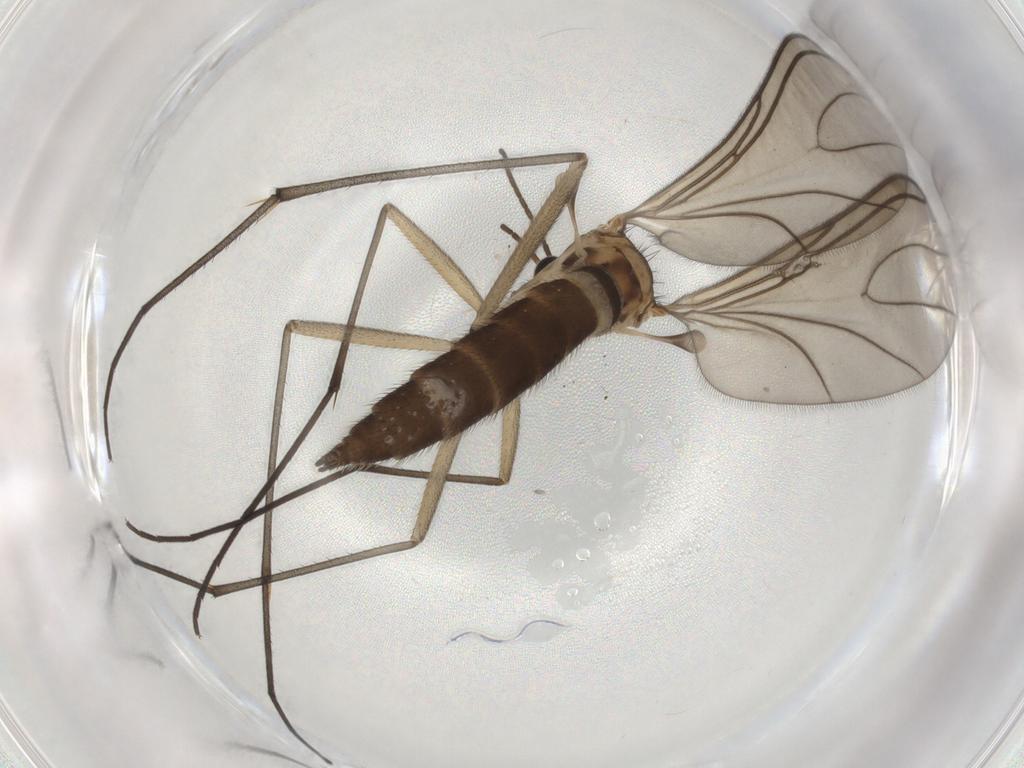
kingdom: Animalia
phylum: Arthropoda
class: Insecta
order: Diptera
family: Sciaridae
